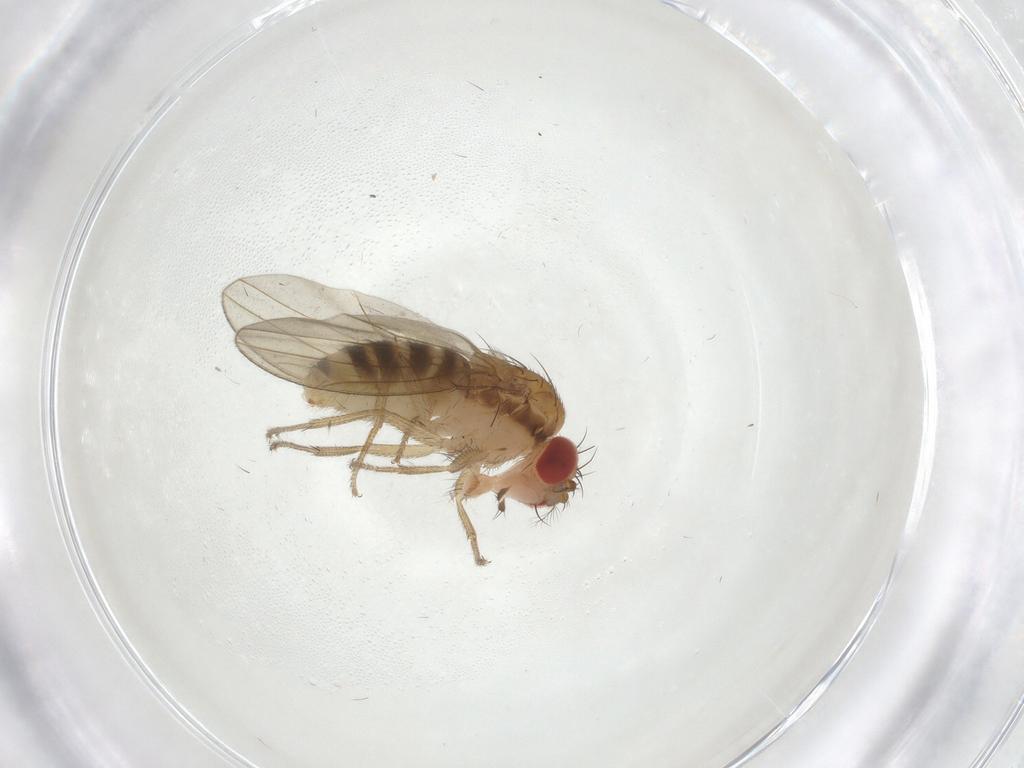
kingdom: Animalia
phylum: Arthropoda
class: Insecta
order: Diptera
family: Drosophilidae
